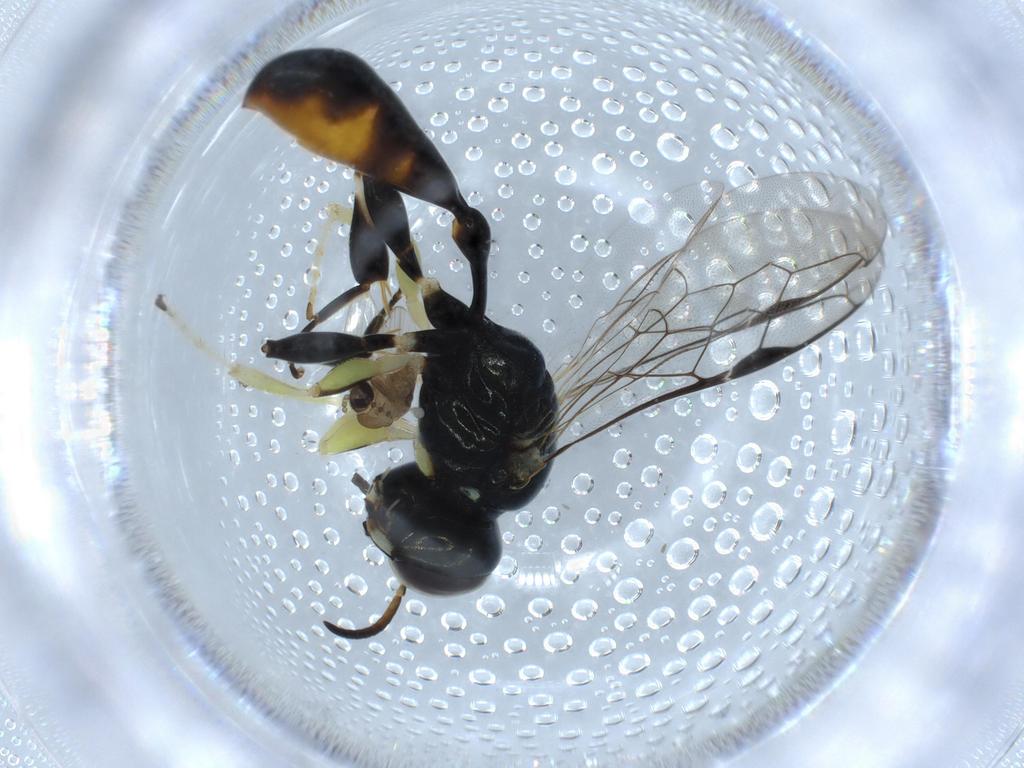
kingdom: Animalia
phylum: Arthropoda
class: Insecta
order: Hymenoptera
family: Crabronidae
